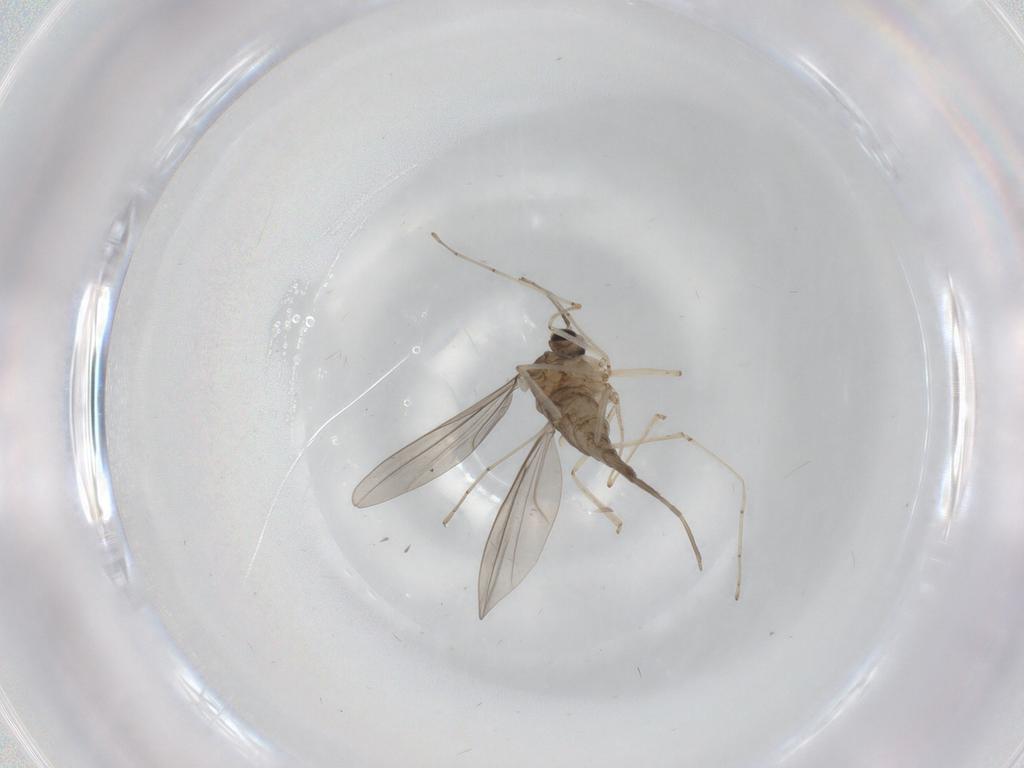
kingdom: Animalia
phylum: Arthropoda
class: Insecta
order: Diptera
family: Cecidomyiidae
